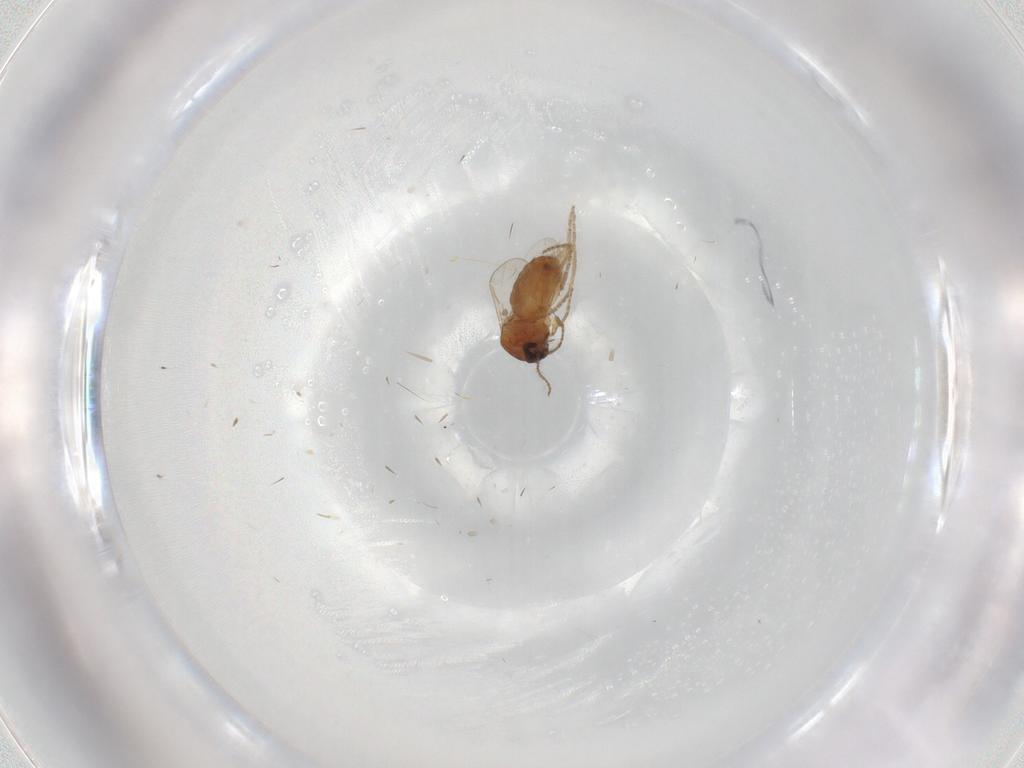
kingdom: Animalia
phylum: Arthropoda
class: Insecta
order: Diptera
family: Ceratopogonidae
